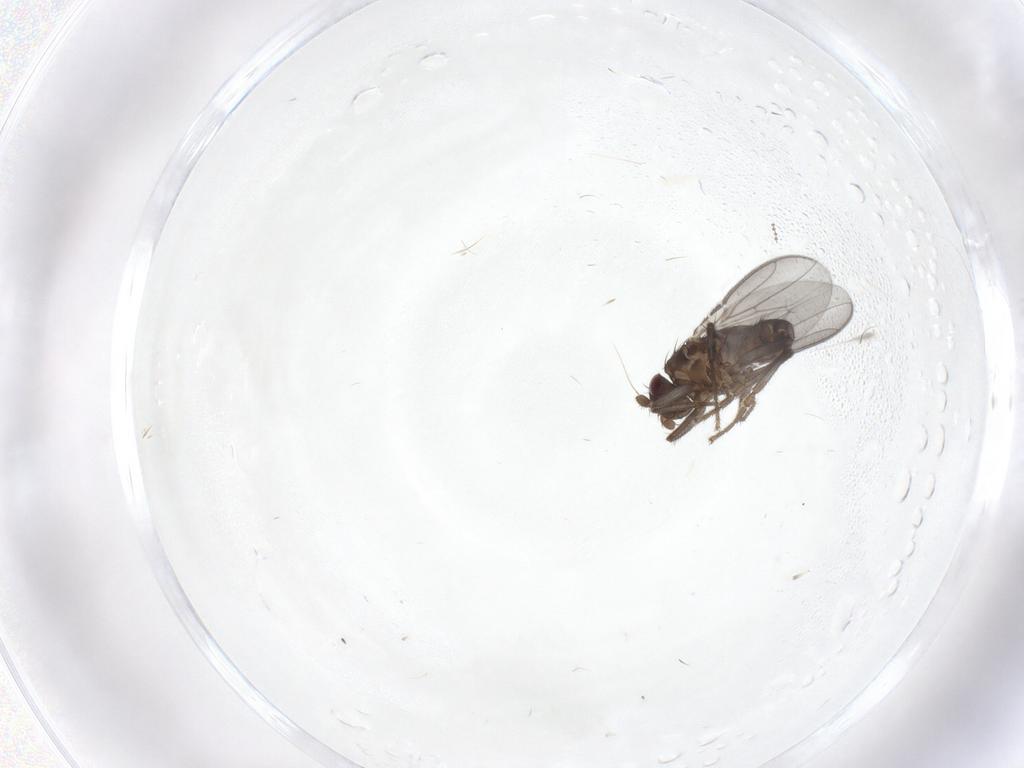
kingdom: Animalia
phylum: Arthropoda
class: Insecta
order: Diptera
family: Sphaeroceridae
